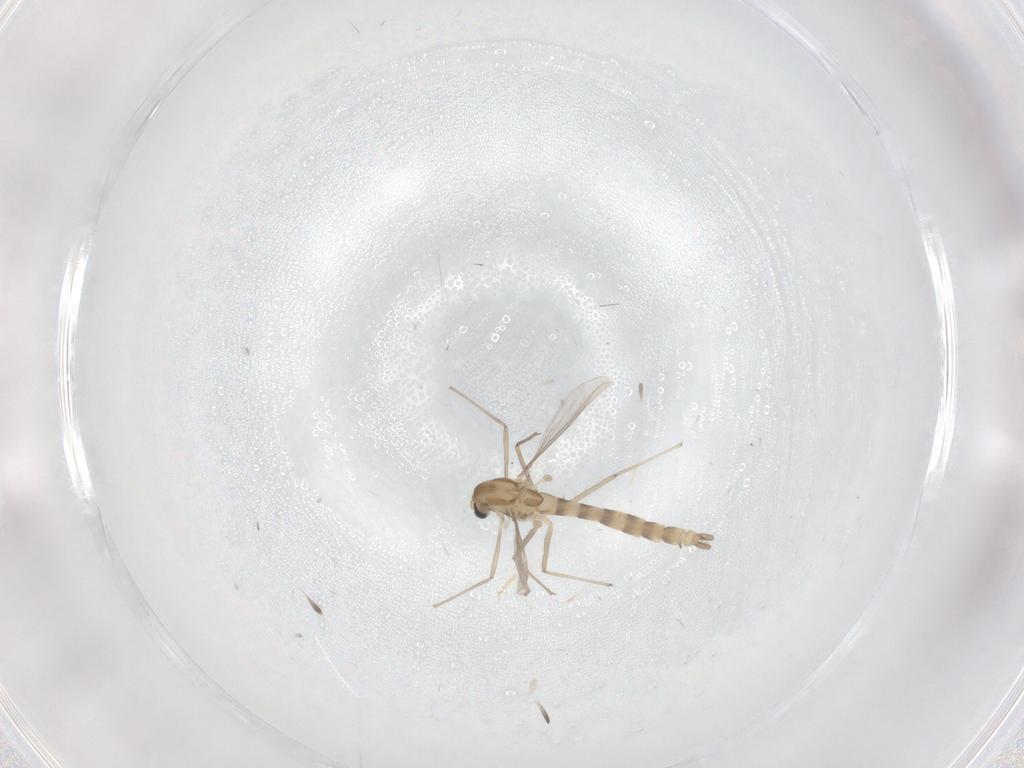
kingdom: Animalia
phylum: Arthropoda
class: Insecta
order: Diptera
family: Chironomidae
